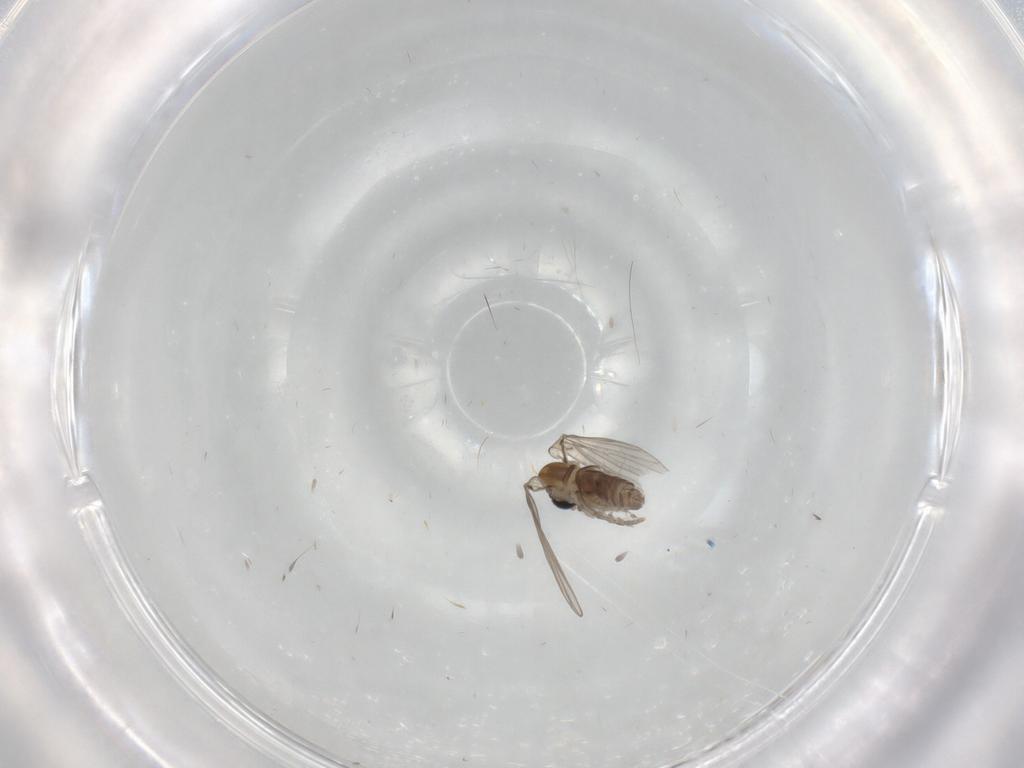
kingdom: Animalia
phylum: Arthropoda
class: Insecta
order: Diptera
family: Psychodidae
